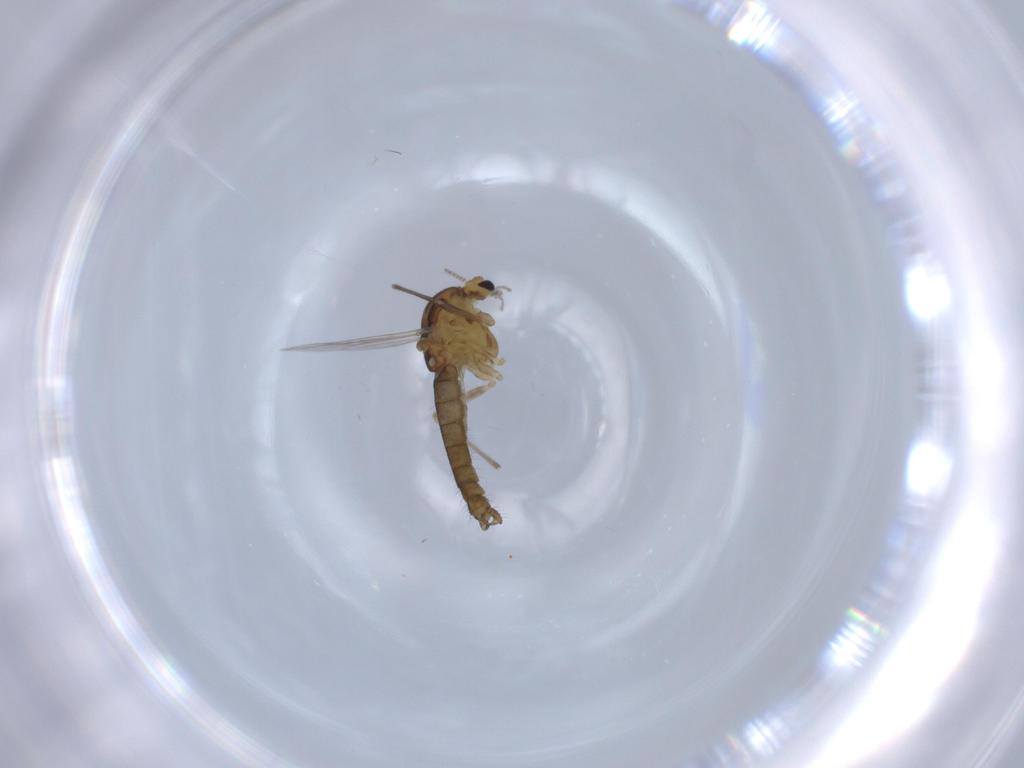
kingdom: Animalia
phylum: Arthropoda
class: Insecta
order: Diptera
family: Chironomidae
